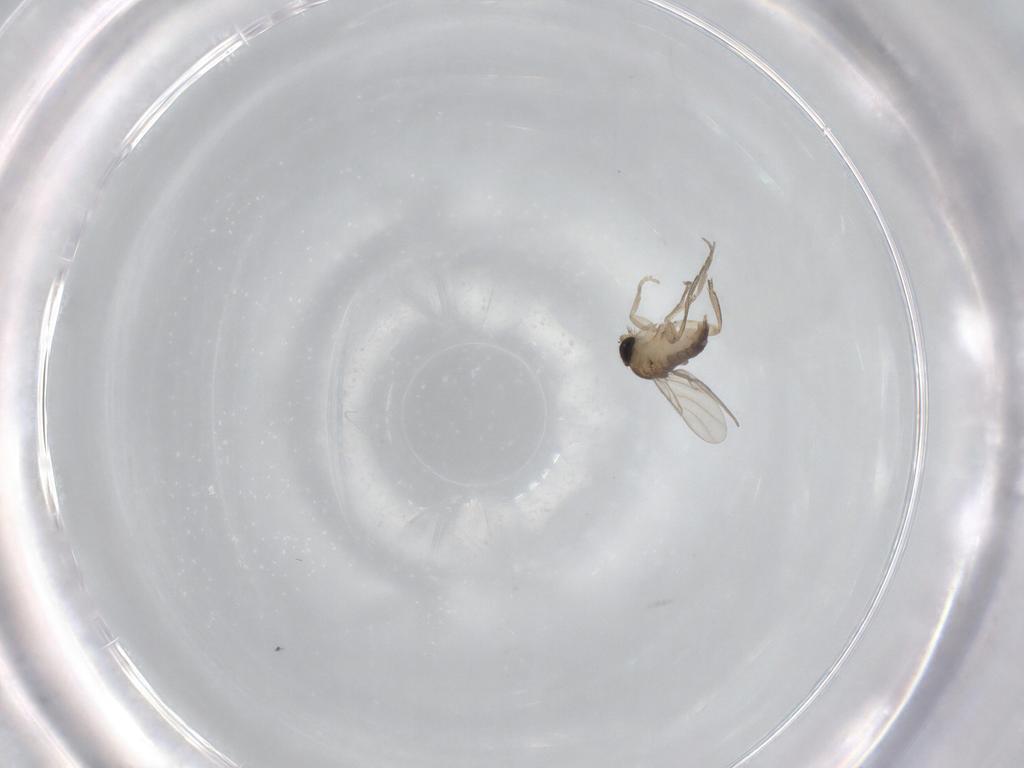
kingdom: Animalia
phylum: Arthropoda
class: Insecta
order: Diptera
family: Phoridae
